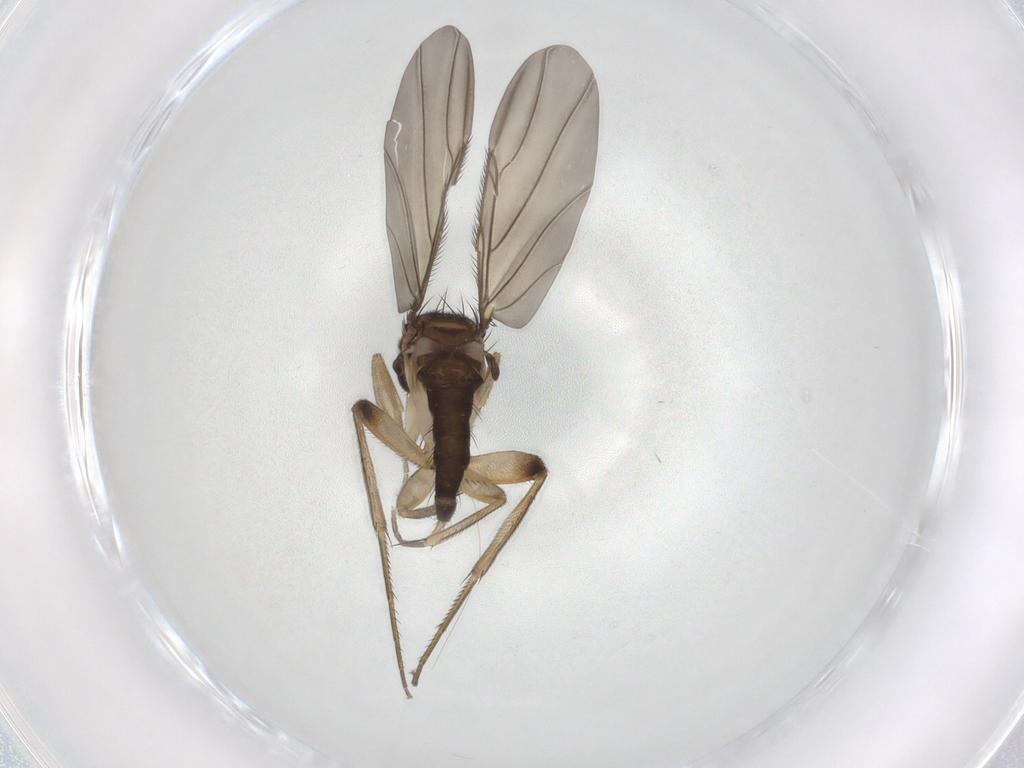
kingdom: Animalia
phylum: Arthropoda
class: Insecta
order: Diptera
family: Phoridae
